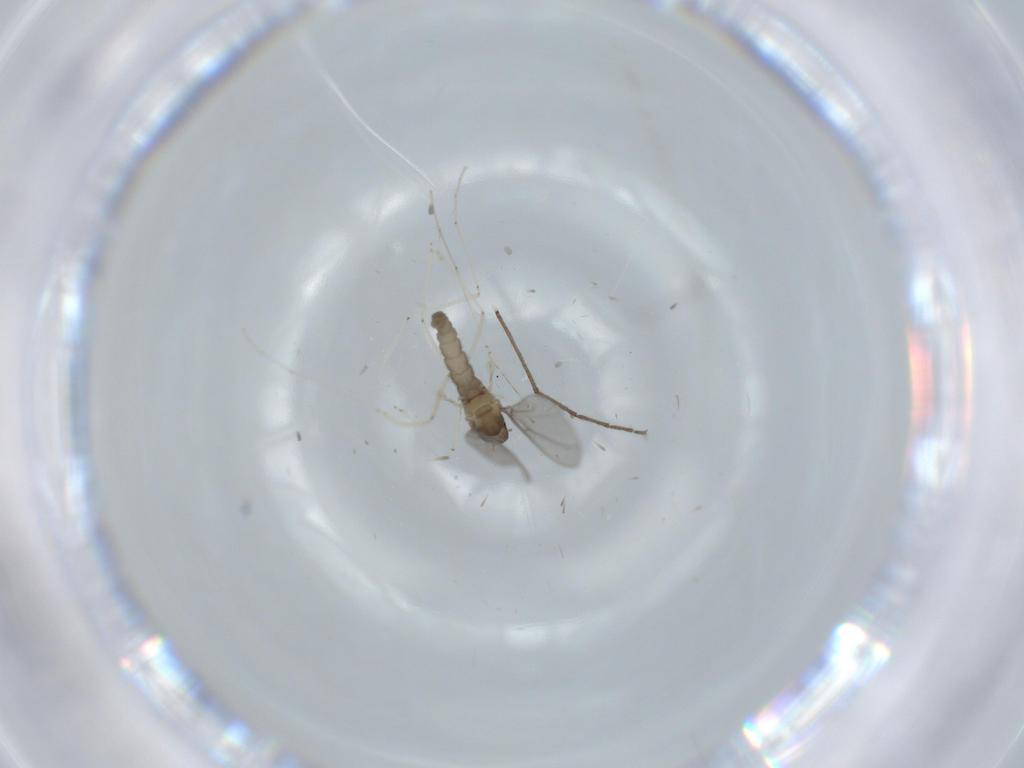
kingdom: Animalia
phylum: Arthropoda
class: Insecta
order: Diptera
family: Chironomidae
